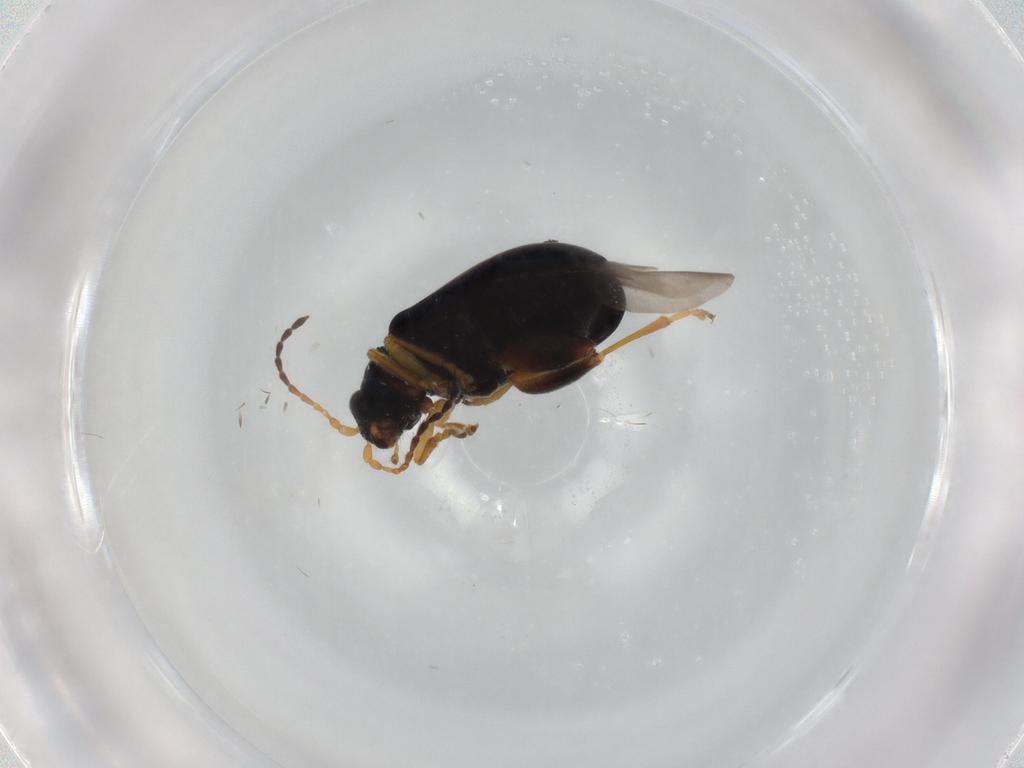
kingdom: Animalia
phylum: Arthropoda
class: Insecta
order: Coleoptera
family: Chrysomelidae
